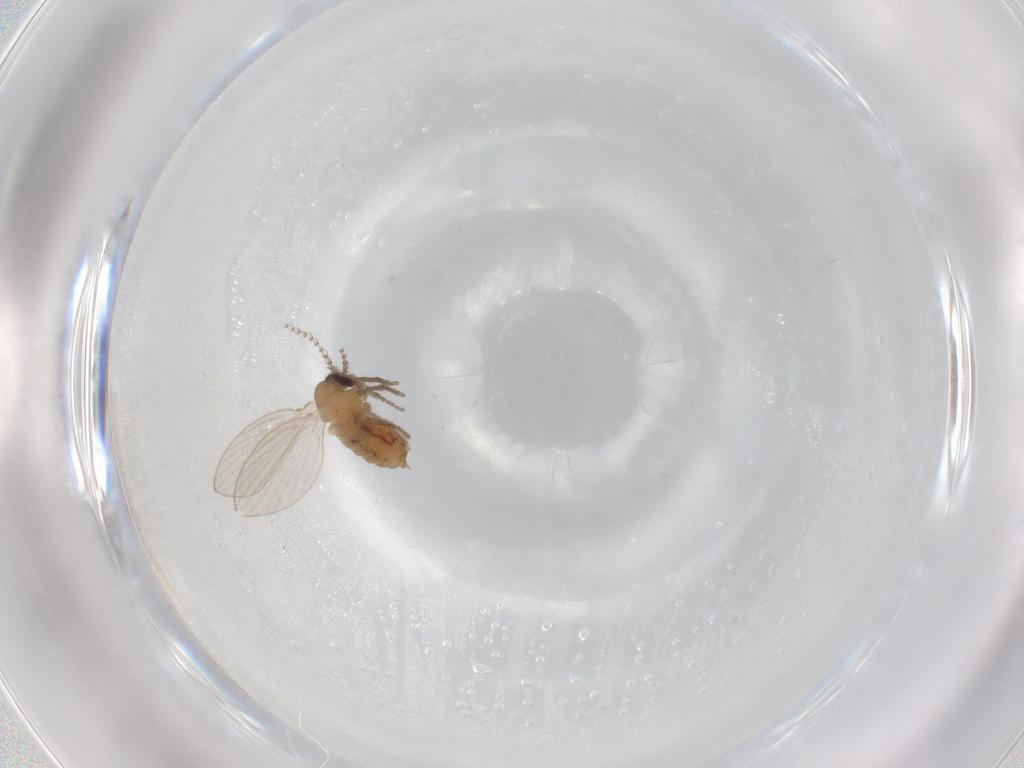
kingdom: Animalia
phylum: Arthropoda
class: Insecta
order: Diptera
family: Psychodidae
